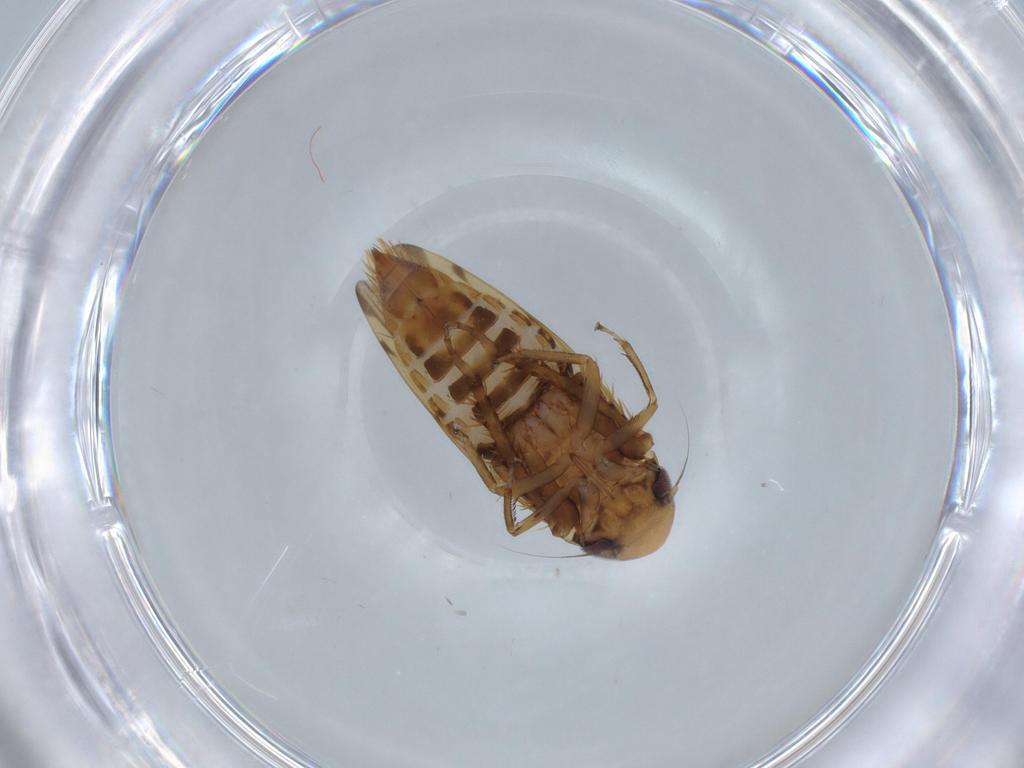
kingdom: Animalia
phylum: Arthropoda
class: Insecta
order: Hemiptera
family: Cicadellidae
